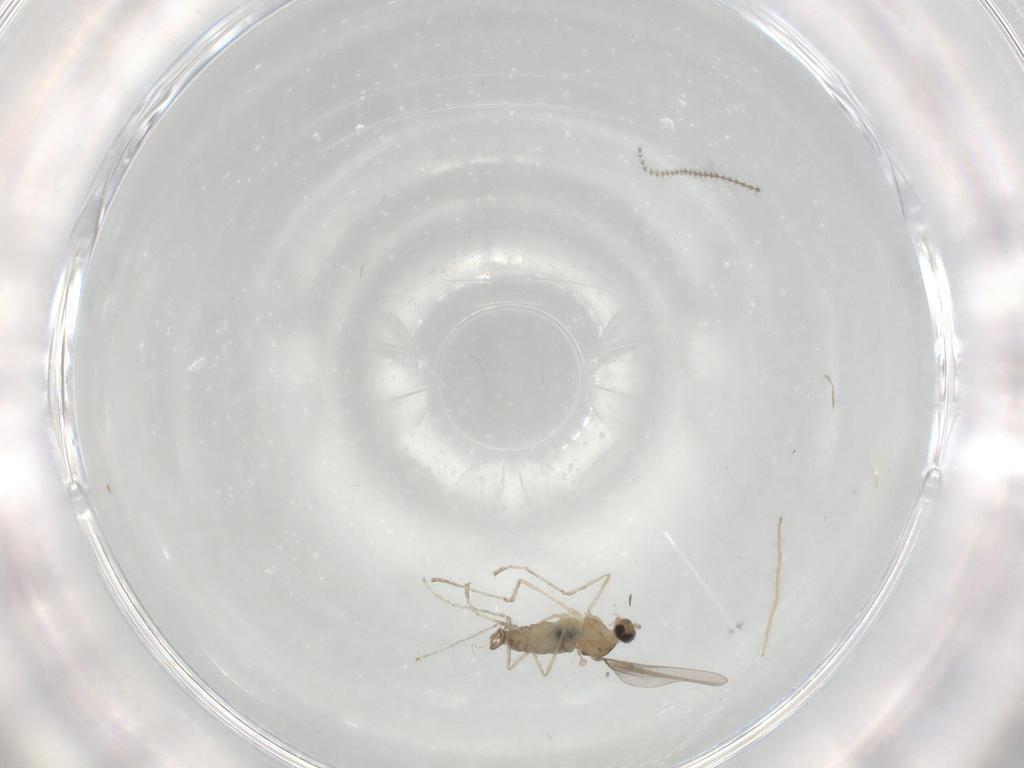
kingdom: Animalia
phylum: Arthropoda
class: Insecta
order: Diptera
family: Cecidomyiidae
